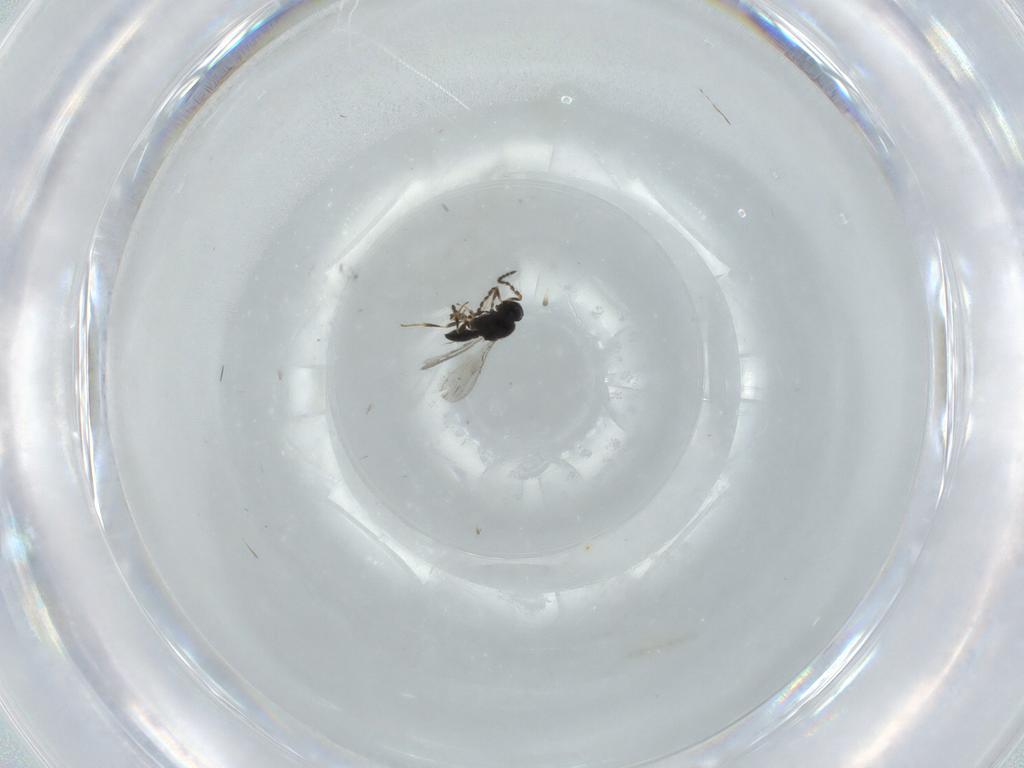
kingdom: Animalia
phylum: Arthropoda
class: Insecta
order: Hymenoptera
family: Scelionidae
